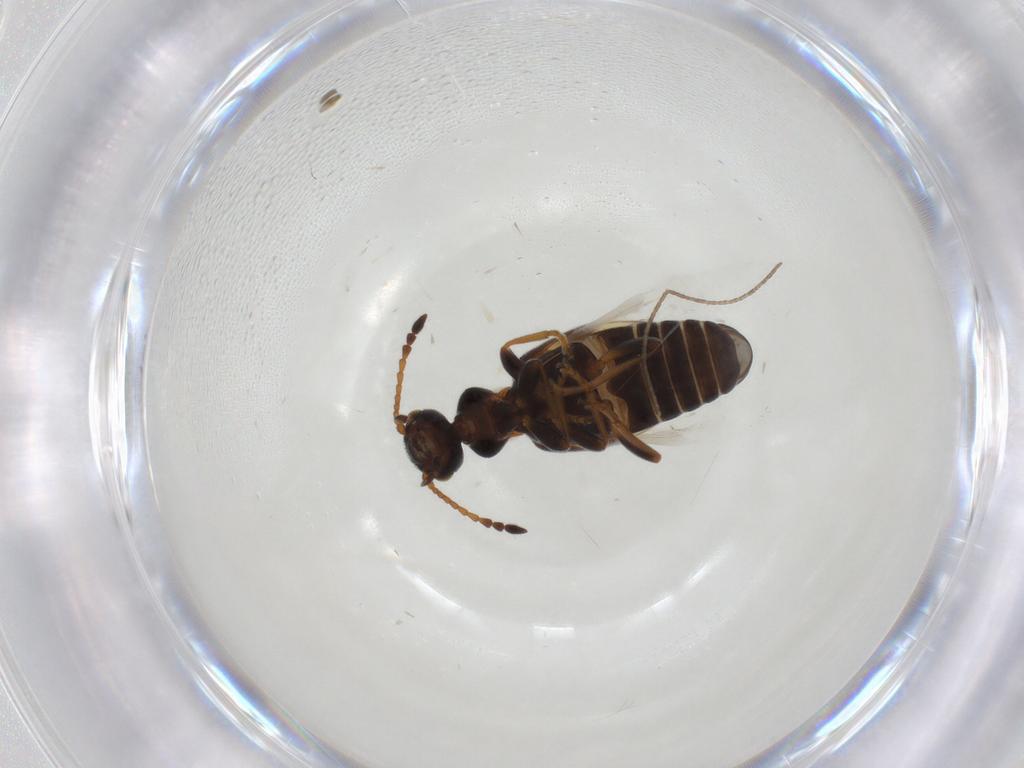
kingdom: Animalia
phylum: Arthropoda
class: Insecta
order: Coleoptera
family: Anthicidae
